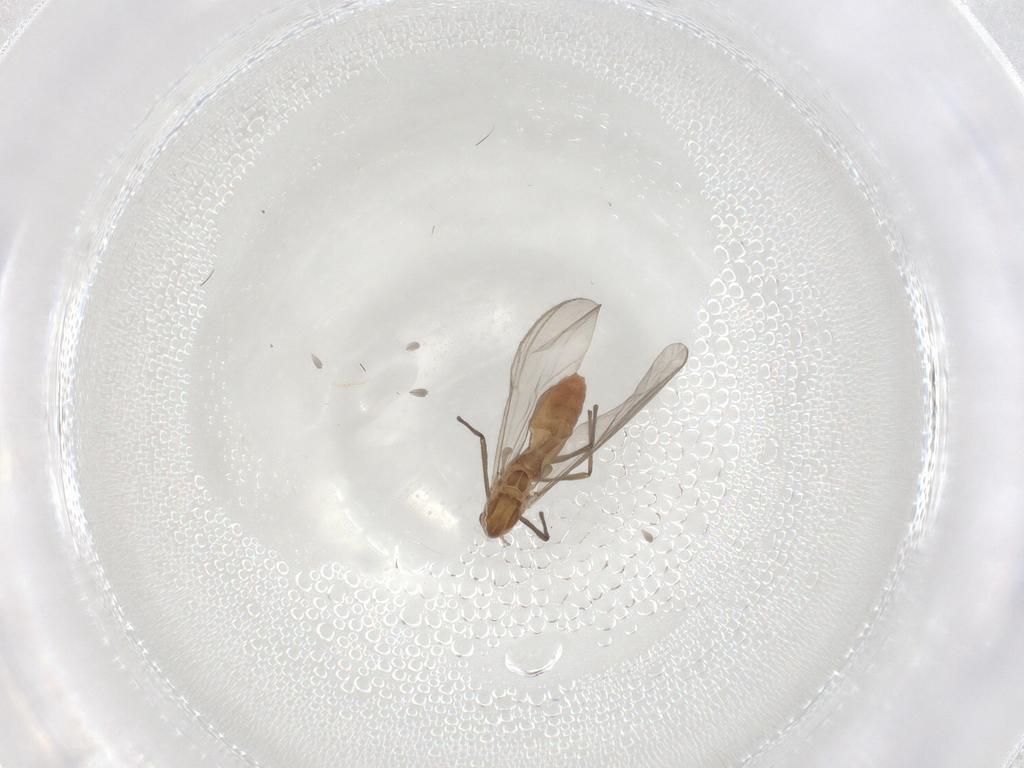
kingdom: Animalia
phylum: Arthropoda
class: Insecta
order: Diptera
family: Chironomidae
